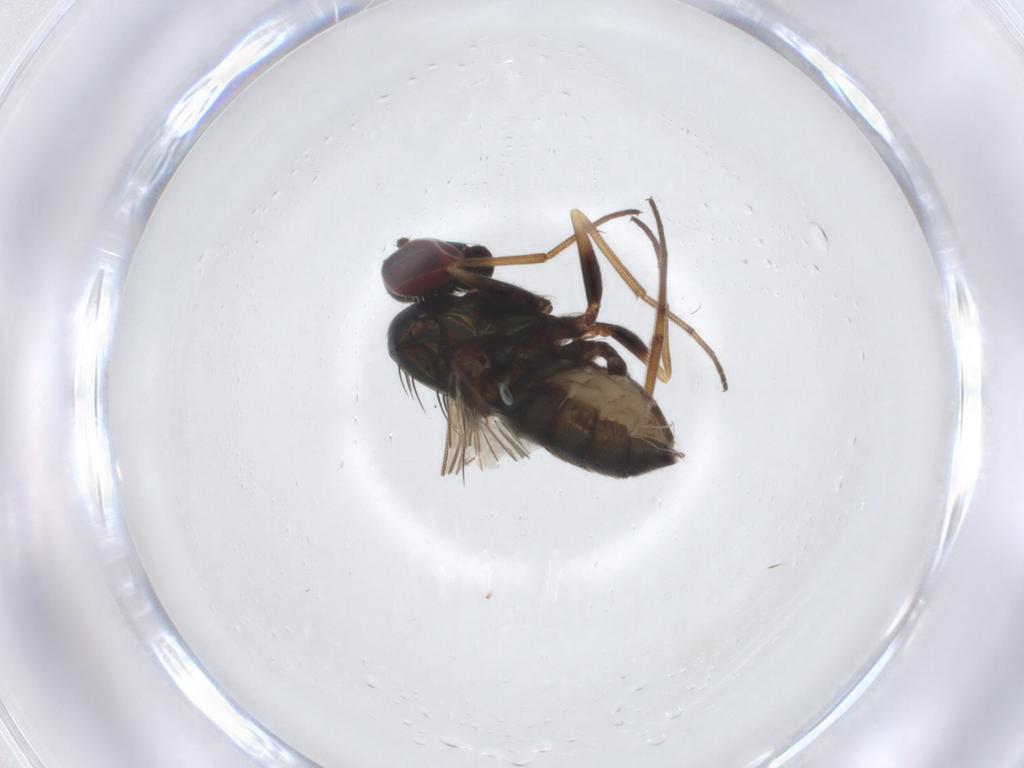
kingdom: Animalia
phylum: Arthropoda
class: Insecta
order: Diptera
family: Dolichopodidae
